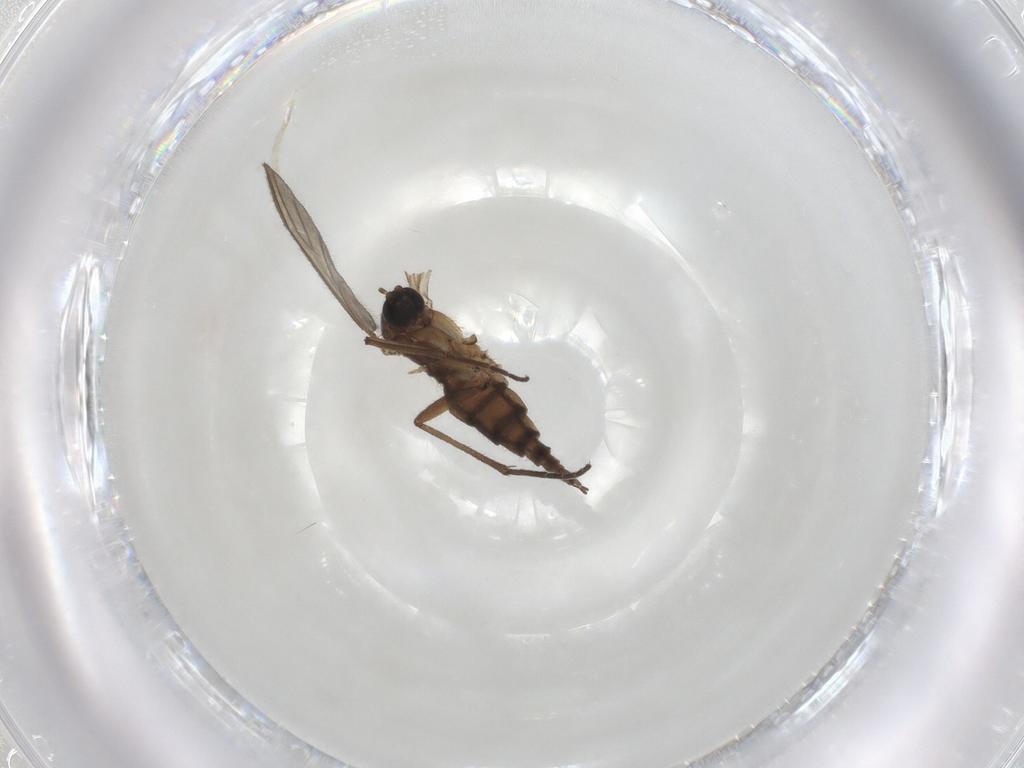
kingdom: Animalia
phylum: Arthropoda
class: Insecta
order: Diptera
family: Sciaridae
